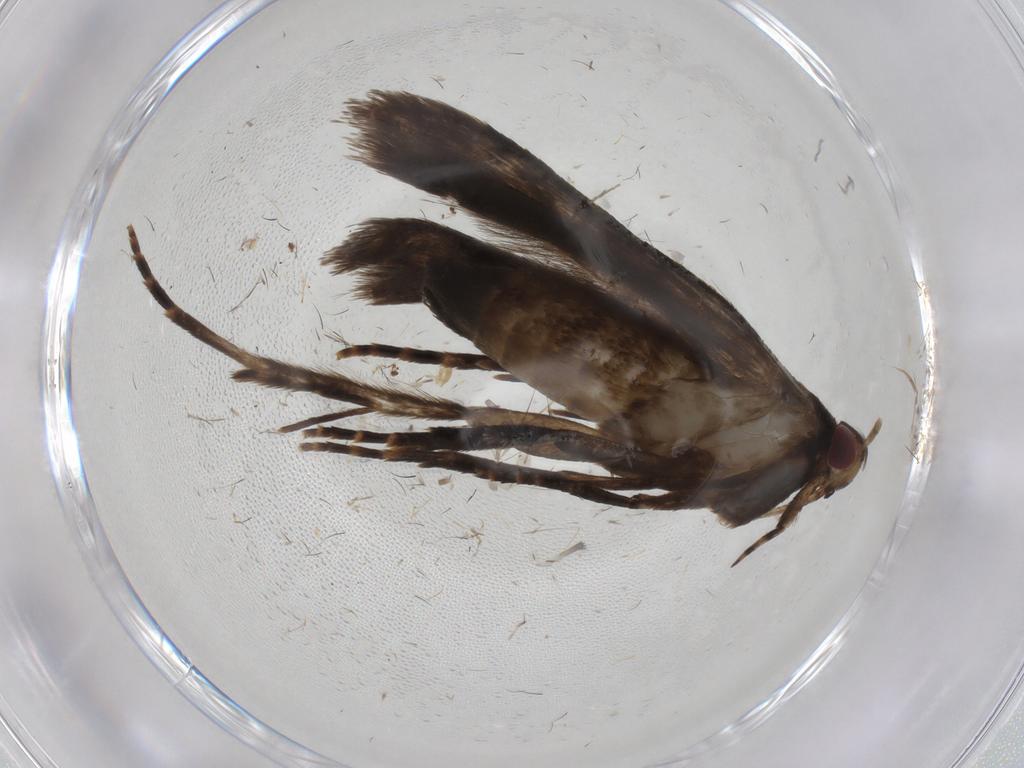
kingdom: Animalia
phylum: Arthropoda
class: Insecta
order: Lepidoptera
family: Gelechiidae
